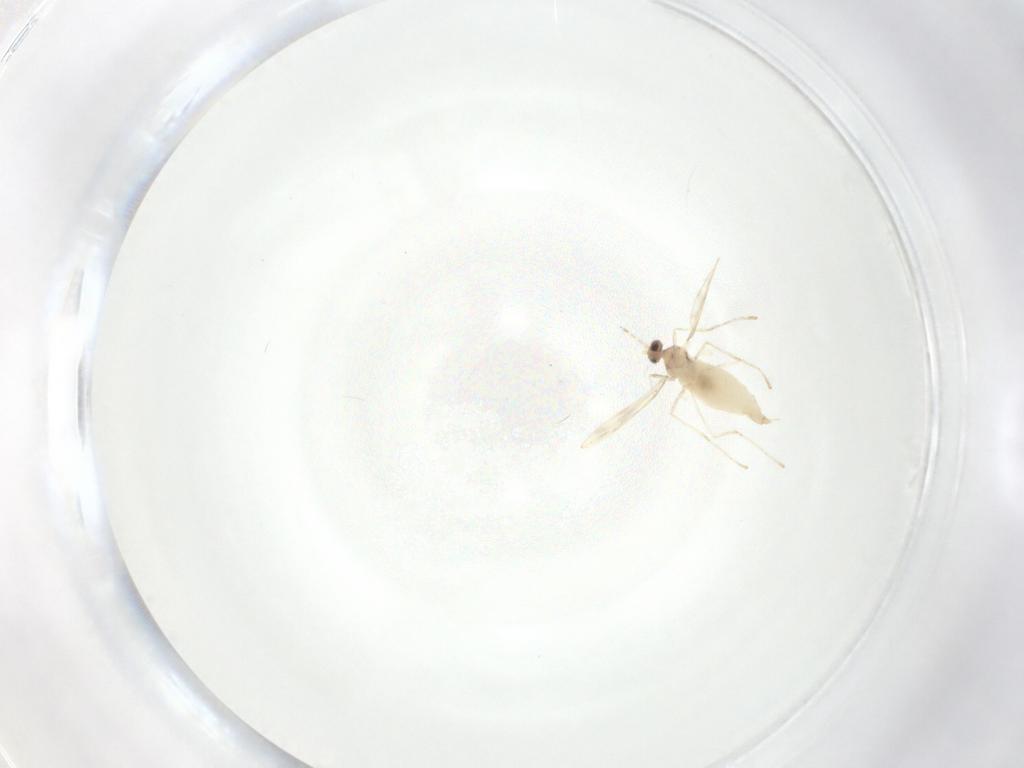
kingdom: Animalia
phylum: Arthropoda
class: Insecta
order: Diptera
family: Cecidomyiidae
